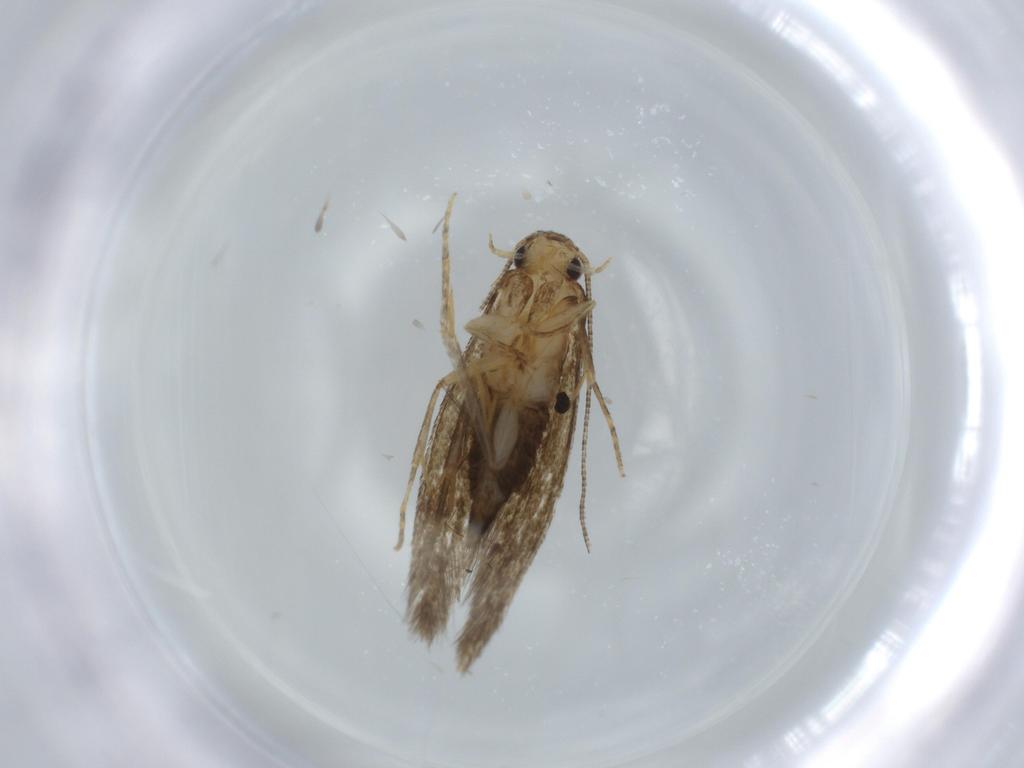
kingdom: Animalia
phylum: Arthropoda
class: Insecta
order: Lepidoptera
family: Tineidae
